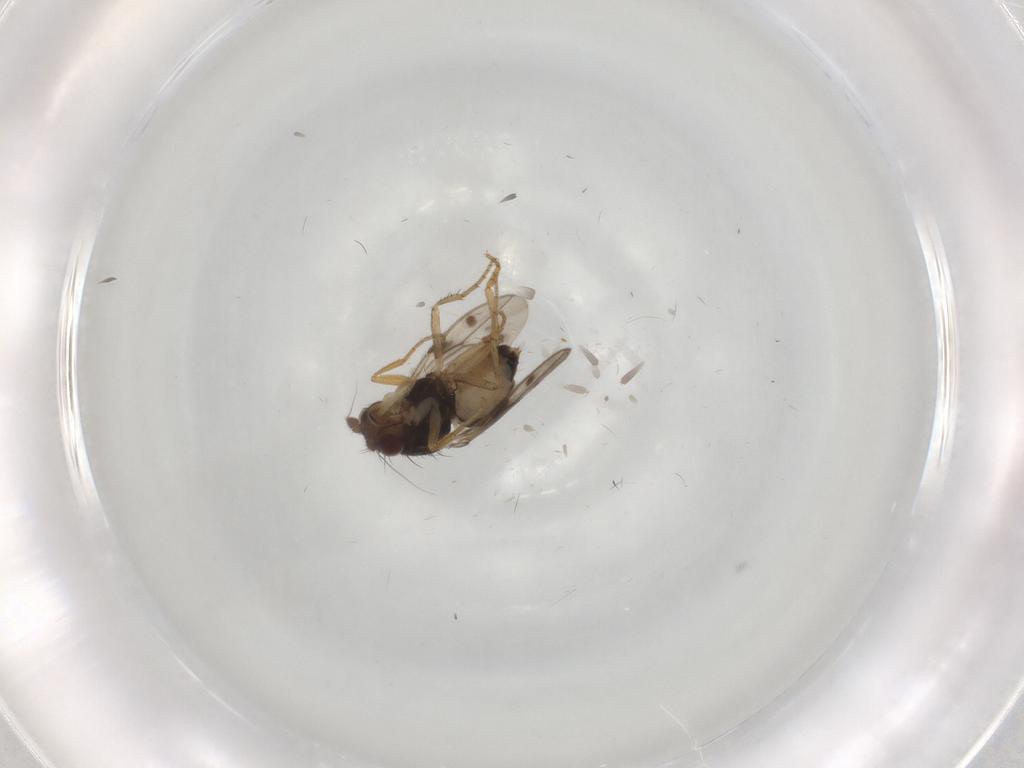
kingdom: Animalia
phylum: Arthropoda
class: Insecta
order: Diptera
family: Sphaeroceridae
